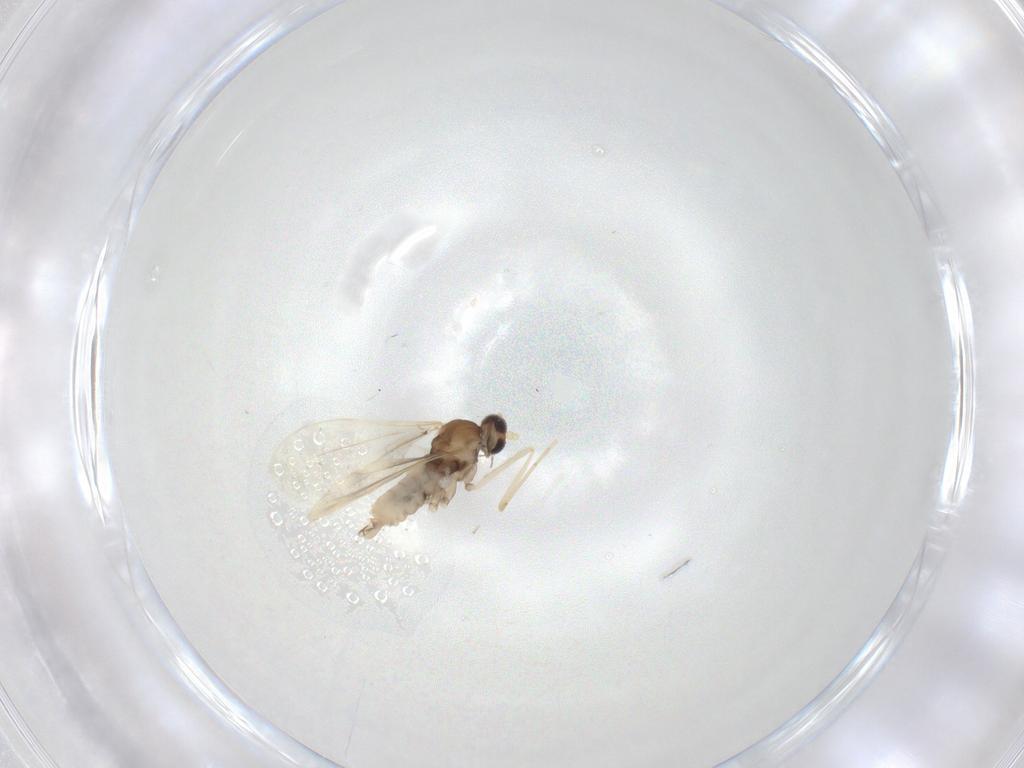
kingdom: Animalia
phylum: Arthropoda
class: Insecta
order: Diptera
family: Cecidomyiidae
